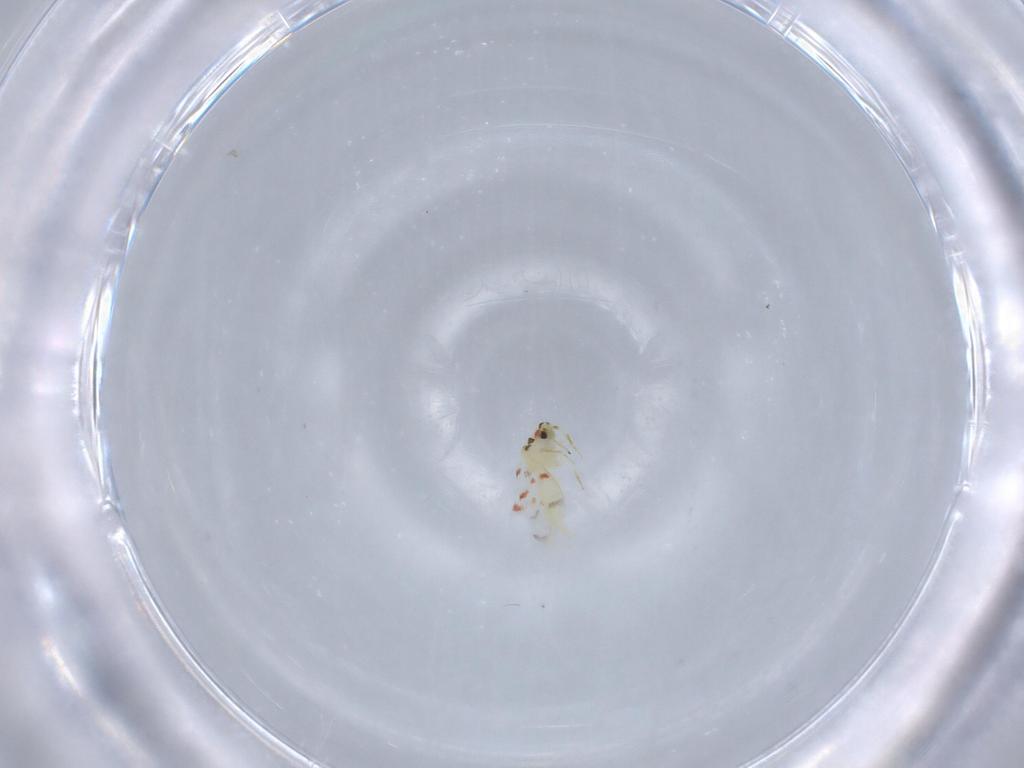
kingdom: Animalia
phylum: Arthropoda
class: Insecta
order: Hemiptera
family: Aleyrodidae
